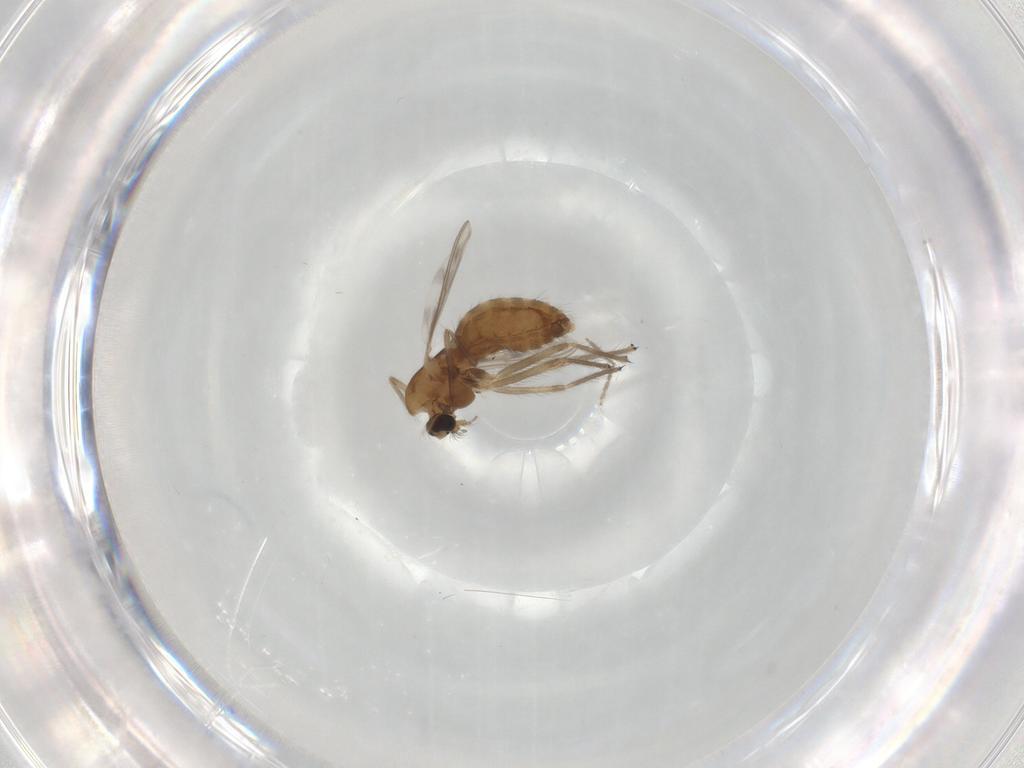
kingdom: Animalia
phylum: Arthropoda
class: Insecta
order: Diptera
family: Chironomidae
